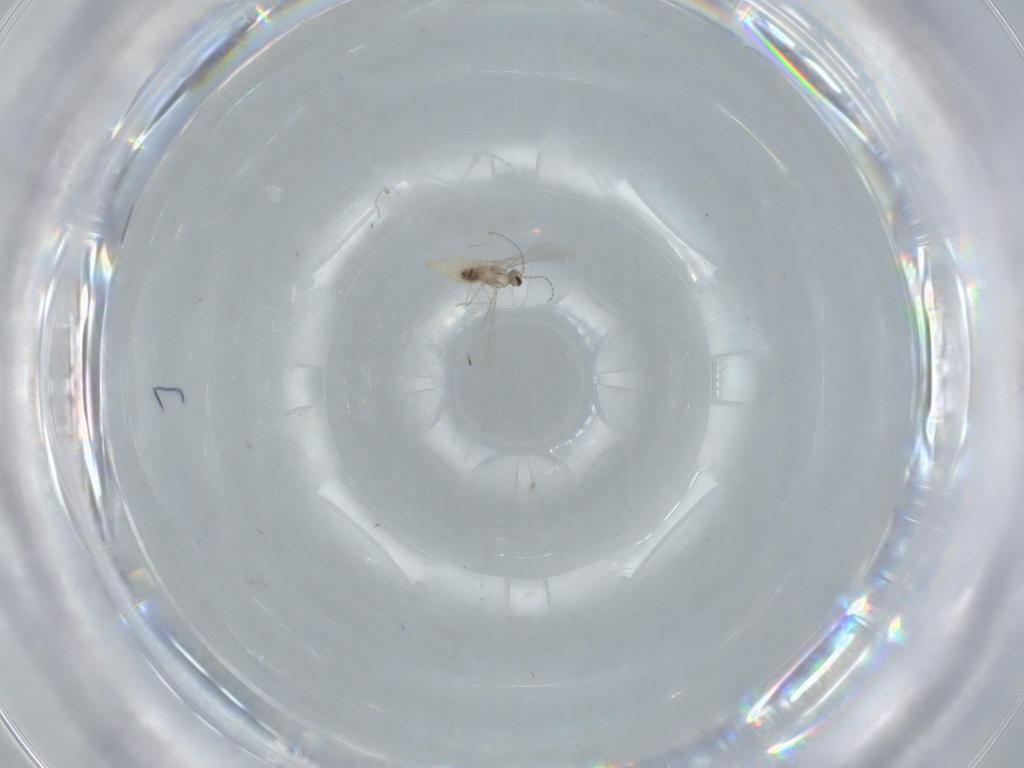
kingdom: Animalia
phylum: Arthropoda
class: Insecta
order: Diptera
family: Cecidomyiidae
